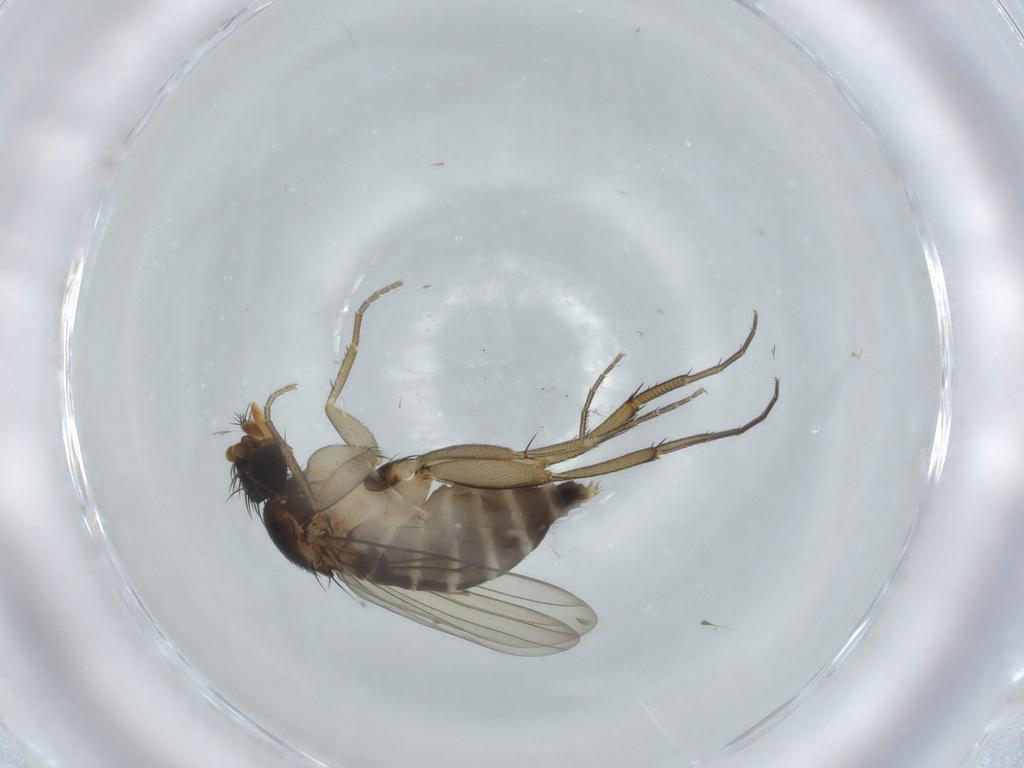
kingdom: Animalia
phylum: Arthropoda
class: Insecta
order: Diptera
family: Phoridae
